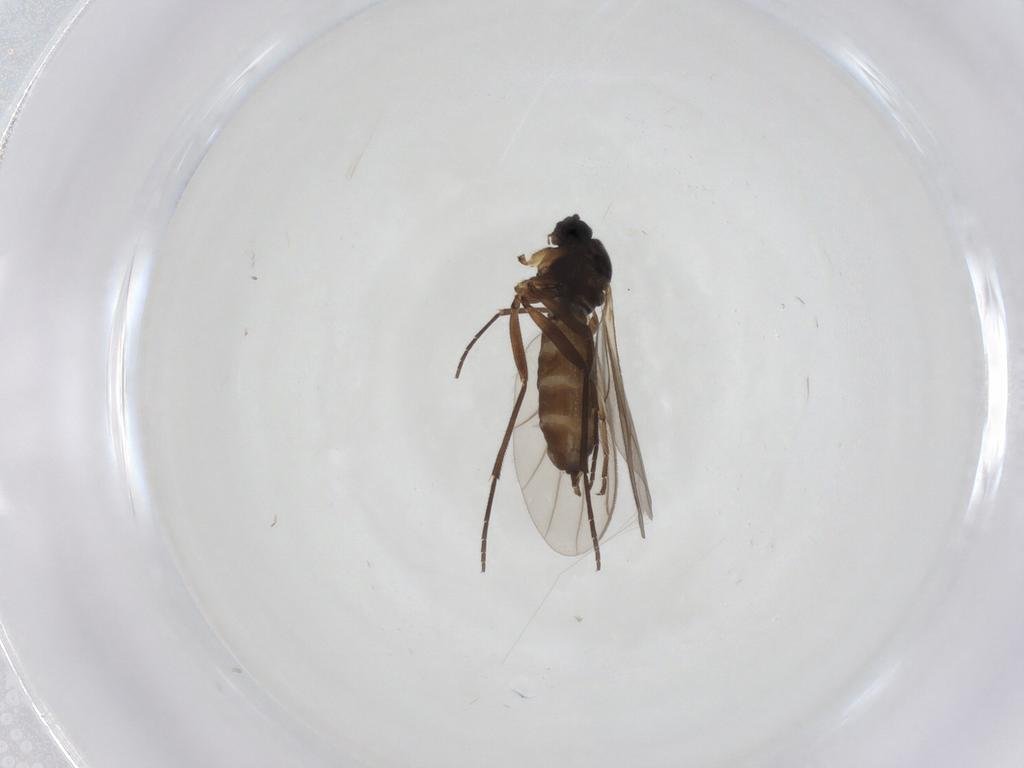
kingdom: Animalia
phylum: Arthropoda
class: Insecta
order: Diptera
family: Sciaridae
